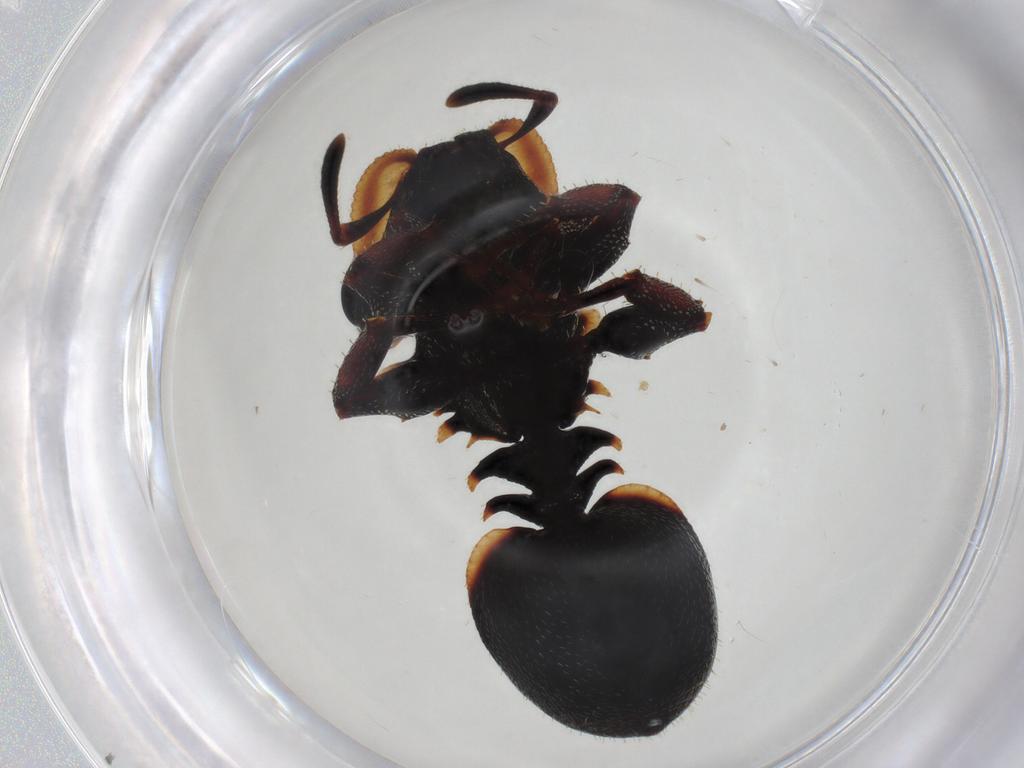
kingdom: Animalia
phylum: Arthropoda
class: Insecta
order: Hymenoptera
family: Formicidae
